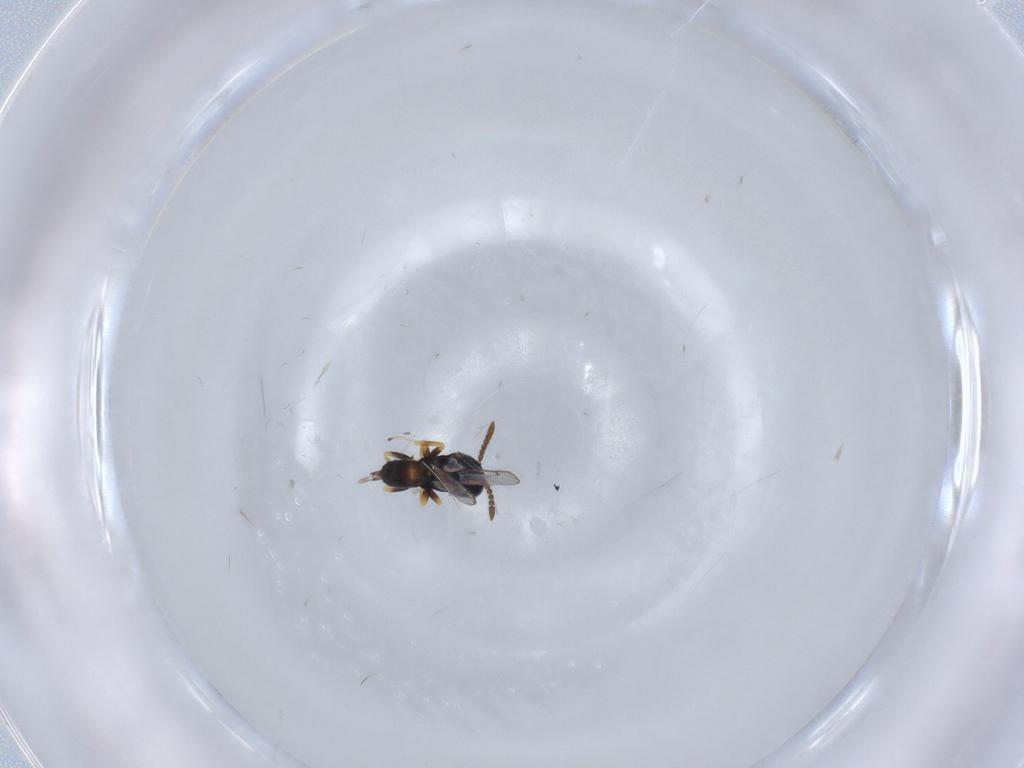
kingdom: Animalia
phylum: Arthropoda
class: Insecta
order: Hymenoptera
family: Pteromalidae
